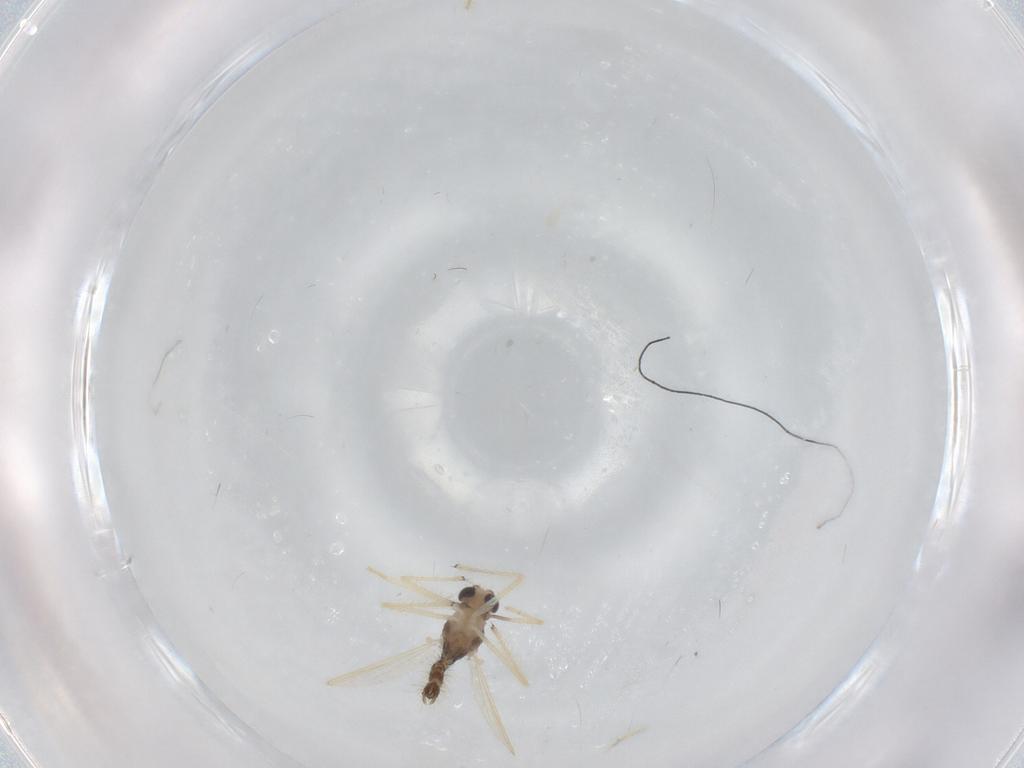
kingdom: Animalia
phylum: Arthropoda
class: Insecta
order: Diptera
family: Chironomidae
